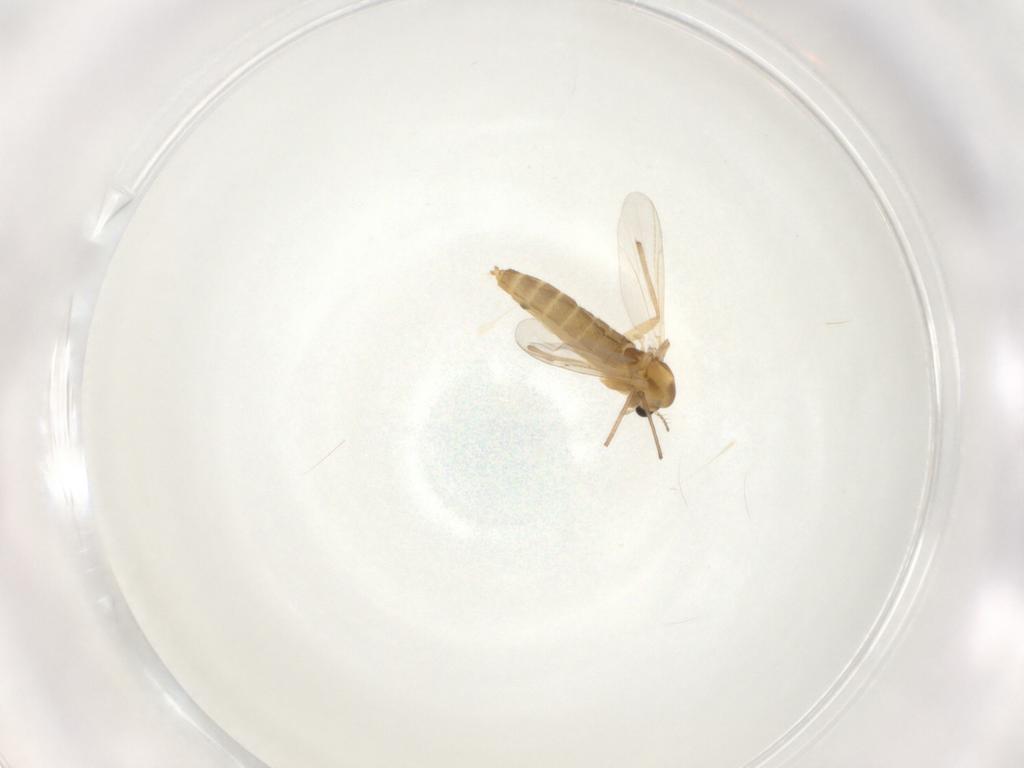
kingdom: Animalia
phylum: Arthropoda
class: Insecta
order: Diptera
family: Chironomidae
